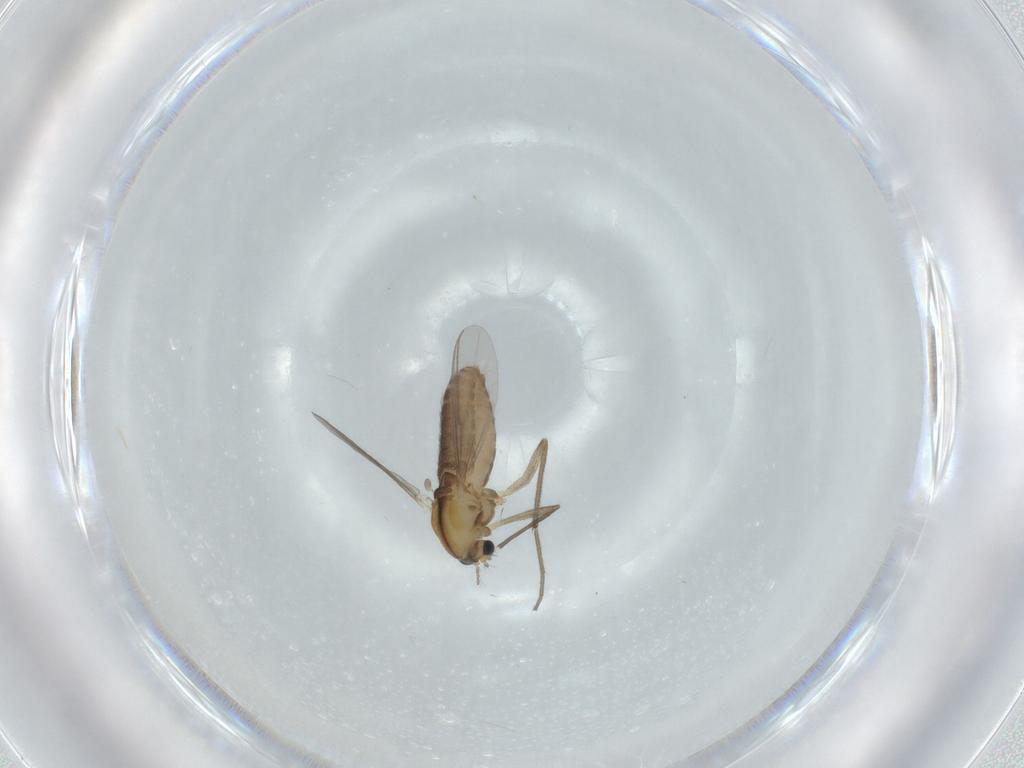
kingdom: Animalia
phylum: Arthropoda
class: Insecta
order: Diptera
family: Chironomidae
